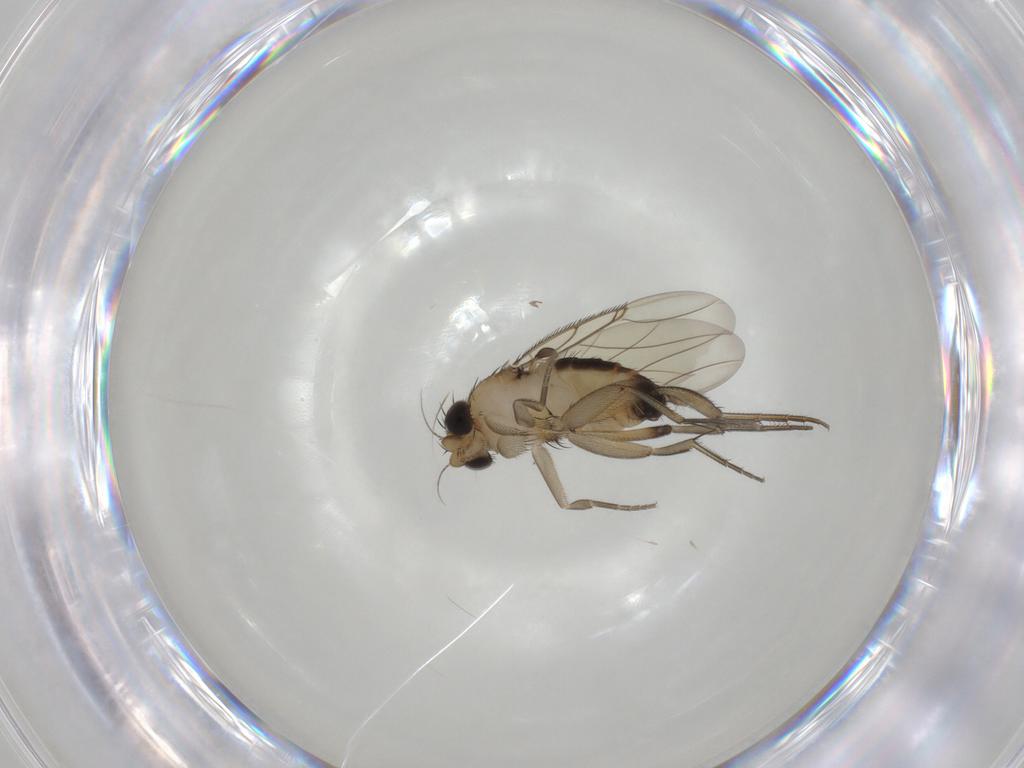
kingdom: Animalia
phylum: Arthropoda
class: Insecta
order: Diptera
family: Phoridae
